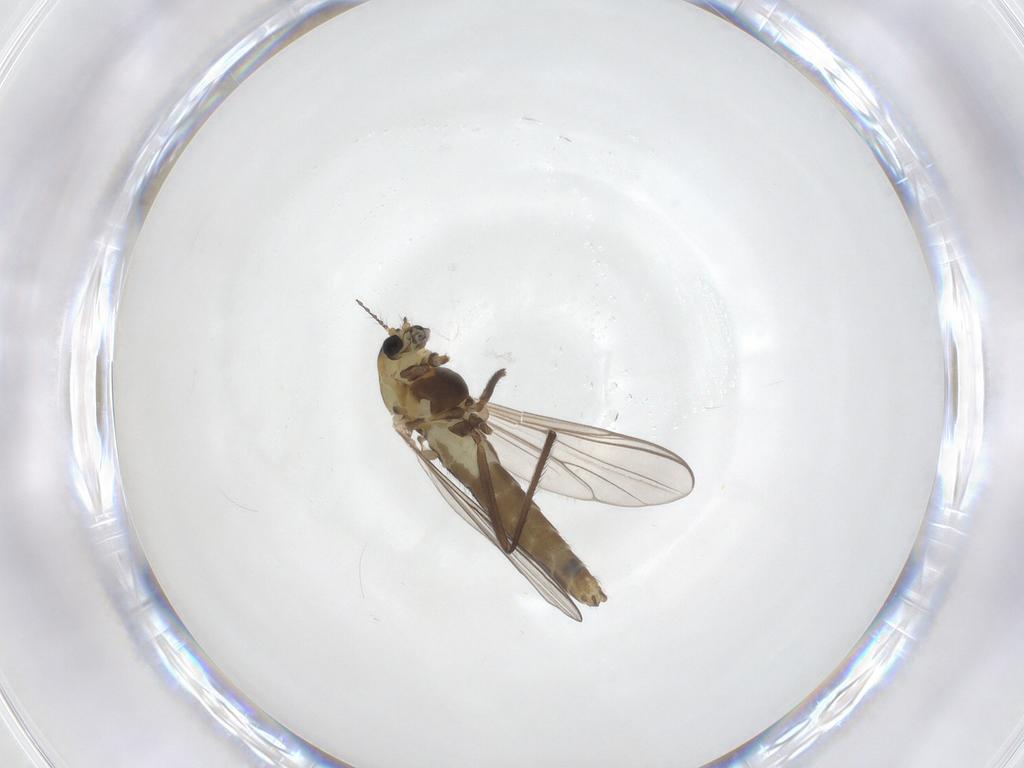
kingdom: Animalia
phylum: Arthropoda
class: Insecta
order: Diptera
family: Chironomidae
